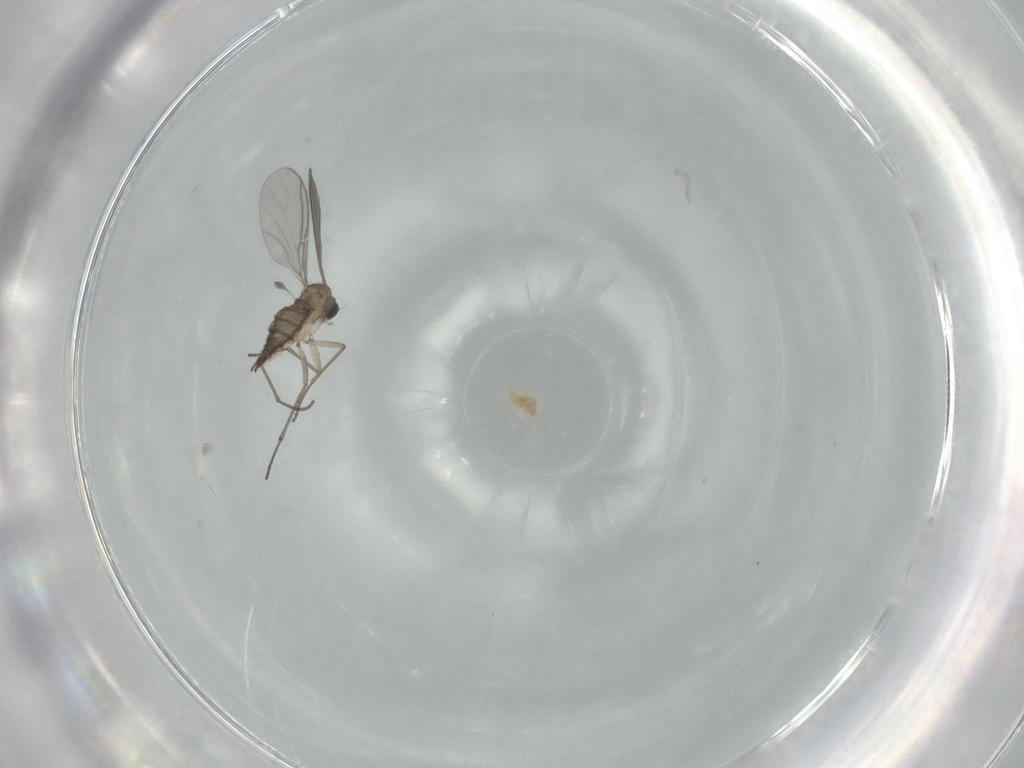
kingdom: Animalia
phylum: Arthropoda
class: Insecta
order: Diptera
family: Sciaridae
